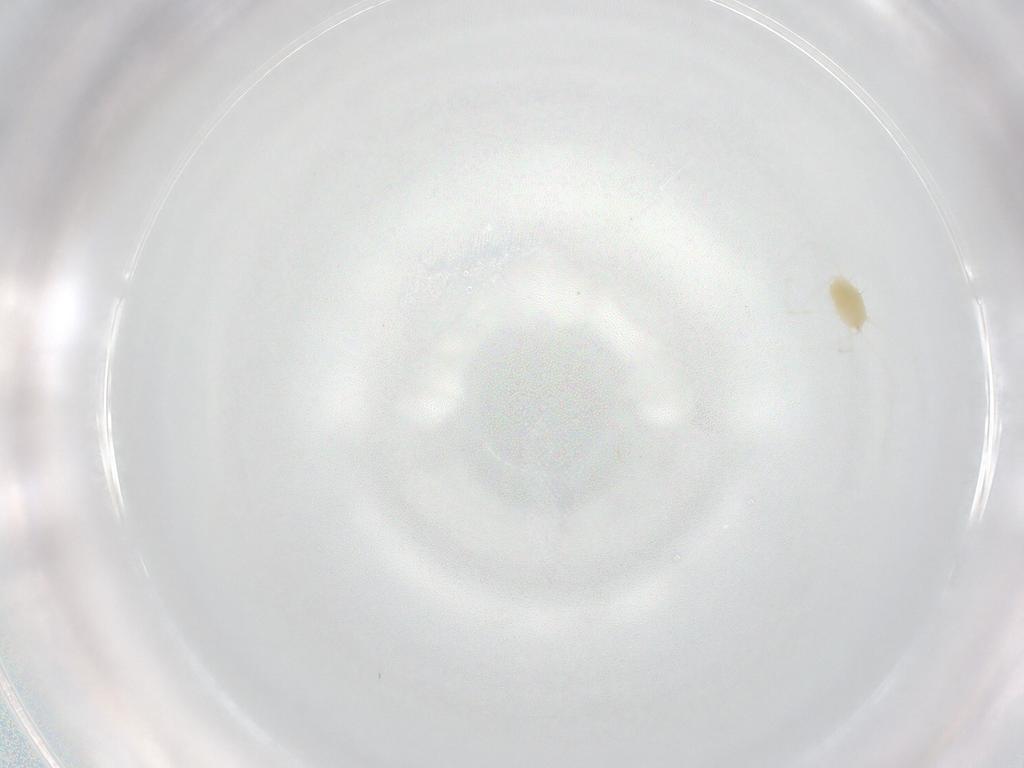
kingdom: Animalia
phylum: Arthropoda
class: Arachnida
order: Trombidiformes
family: Tetranychidae
